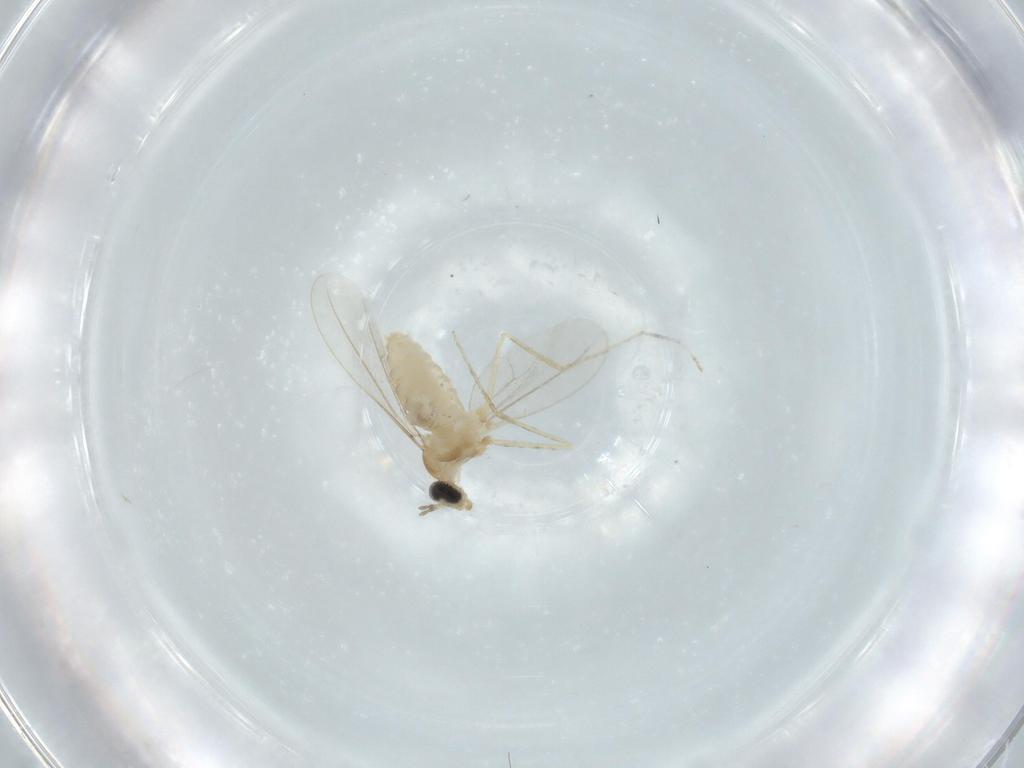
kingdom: Animalia
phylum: Arthropoda
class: Insecta
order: Diptera
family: Cecidomyiidae
